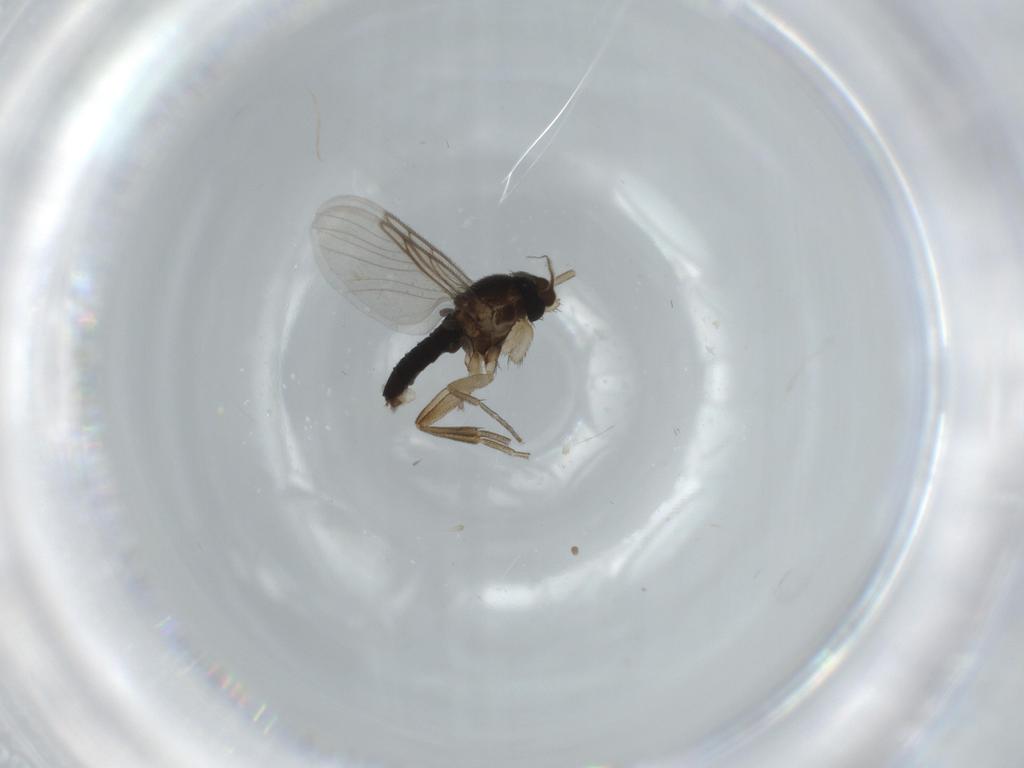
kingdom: Animalia
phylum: Arthropoda
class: Insecta
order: Diptera
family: Phoridae
